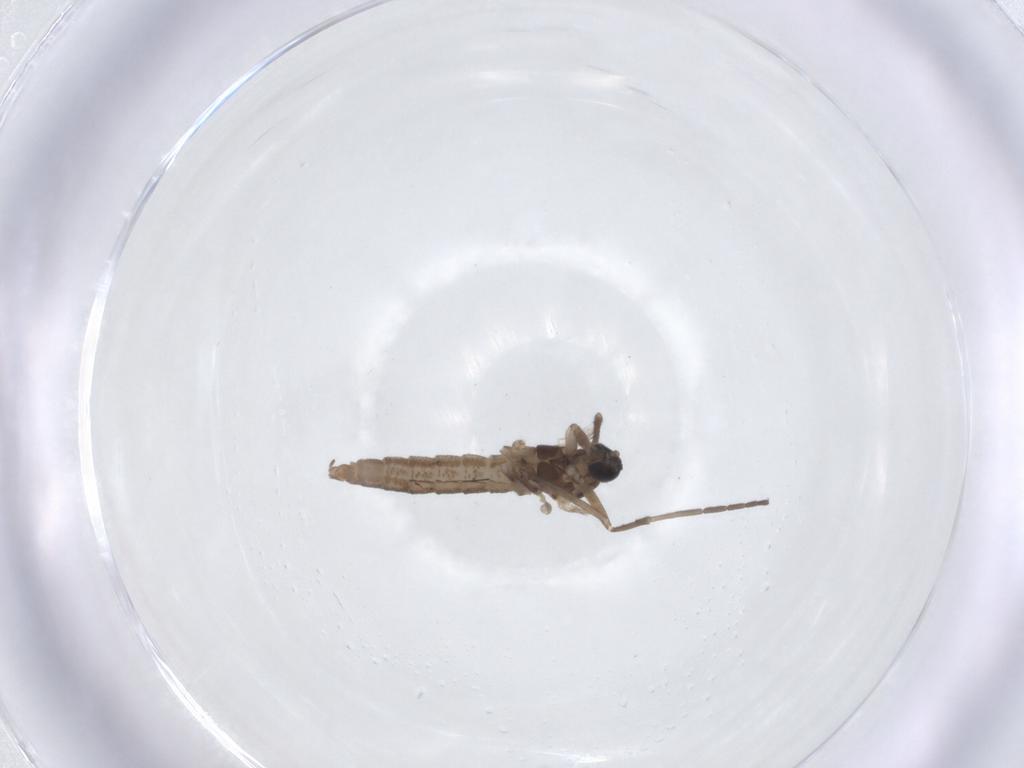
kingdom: Animalia
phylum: Arthropoda
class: Insecta
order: Diptera
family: Cecidomyiidae
